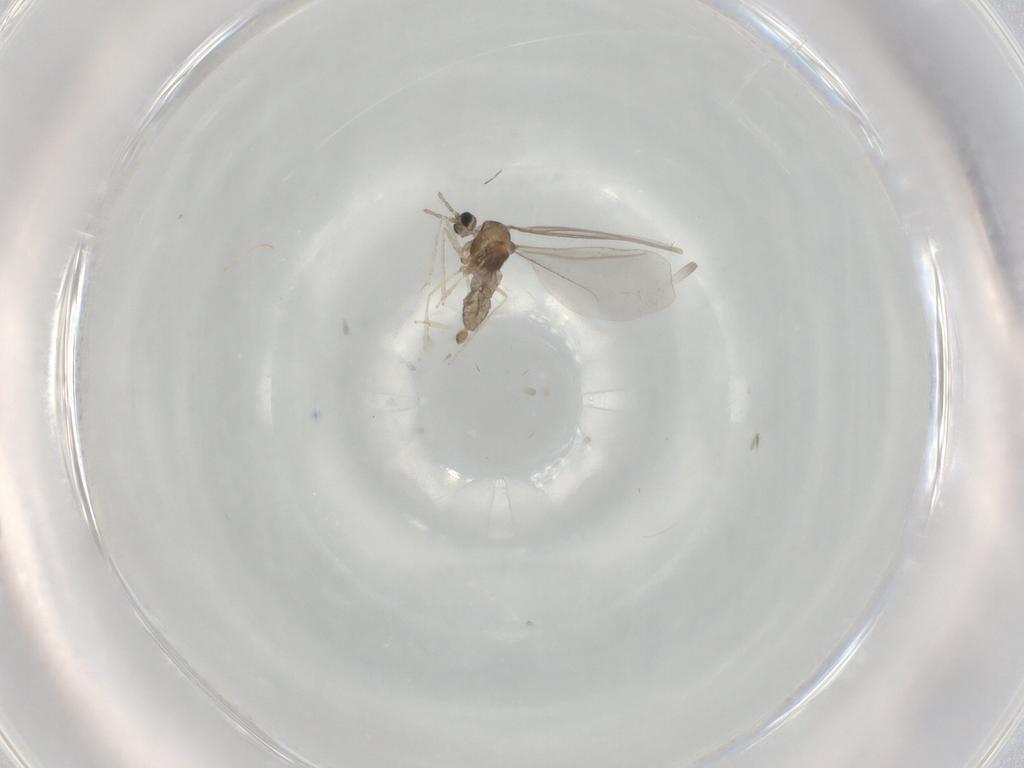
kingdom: Animalia
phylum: Arthropoda
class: Insecta
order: Diptera
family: Cecidomyiidae
